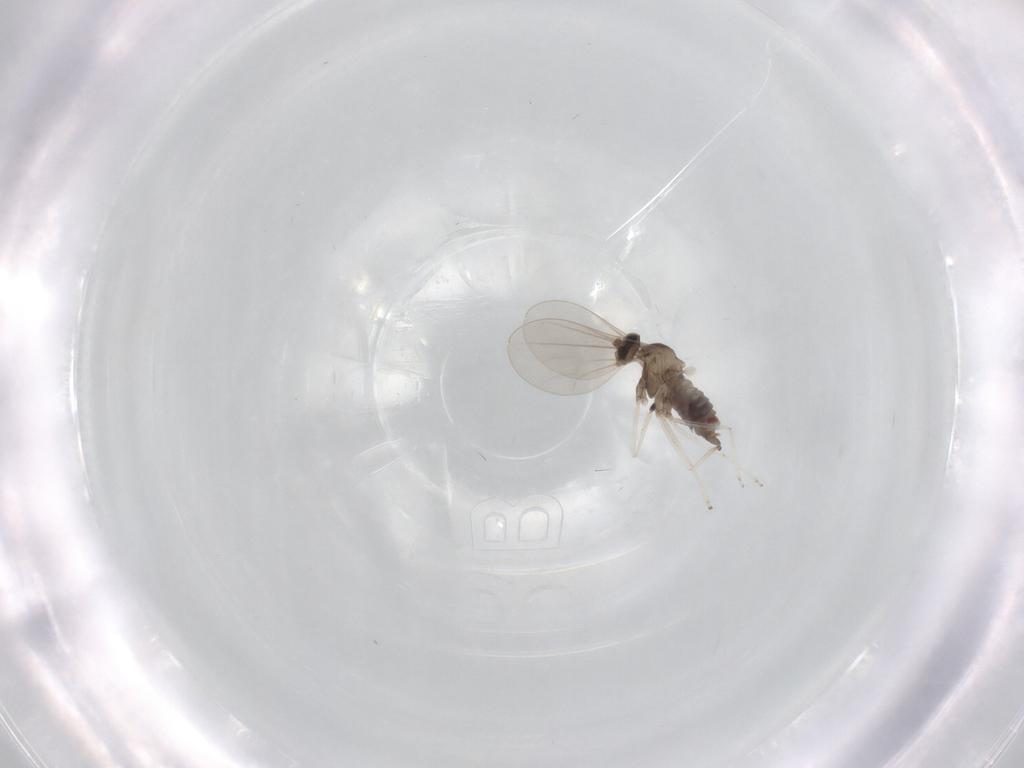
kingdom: Animalia
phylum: Arthropoda
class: Insecta
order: Diptera
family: Cecidomyiidae
